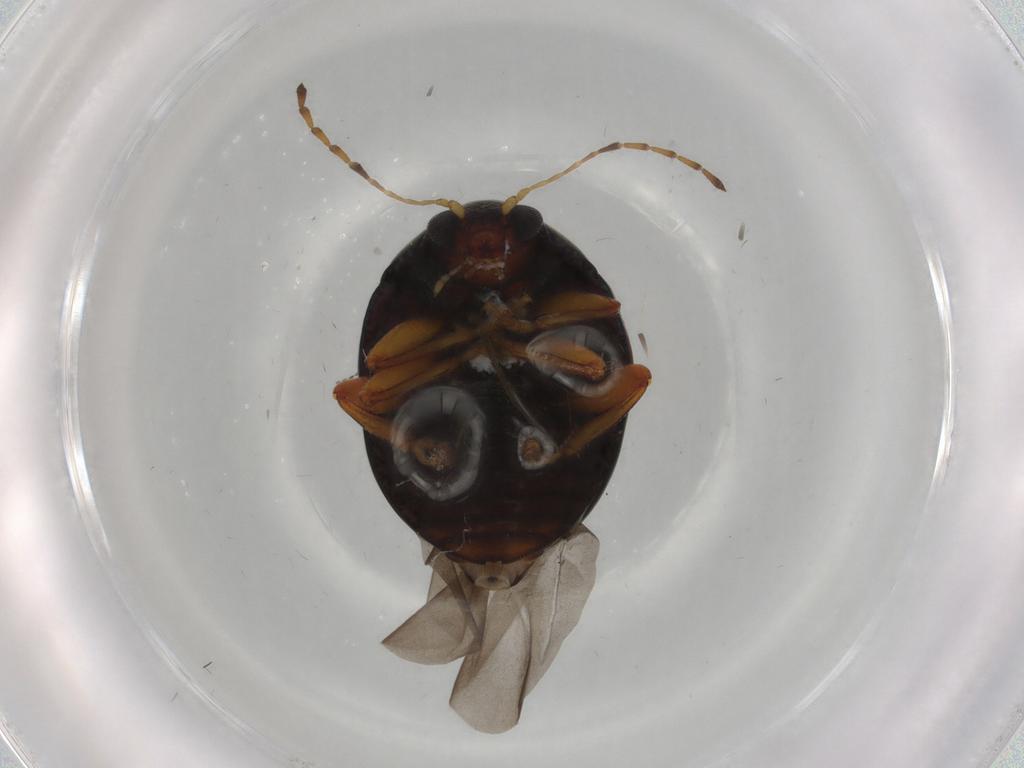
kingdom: Animalia
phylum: Arthropoda
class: Insecta
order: Coleoptera
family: Chrysomelidae
